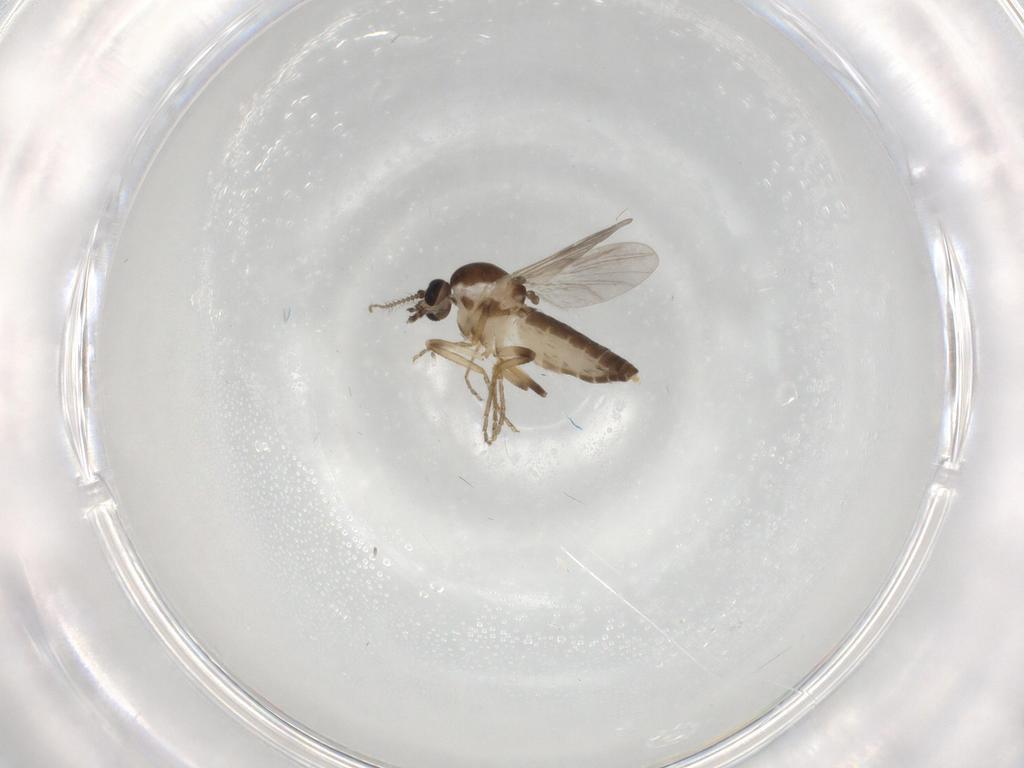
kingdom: Animalia
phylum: Arthropoda
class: Insecta
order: Diptera
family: Ceratopogonidae
